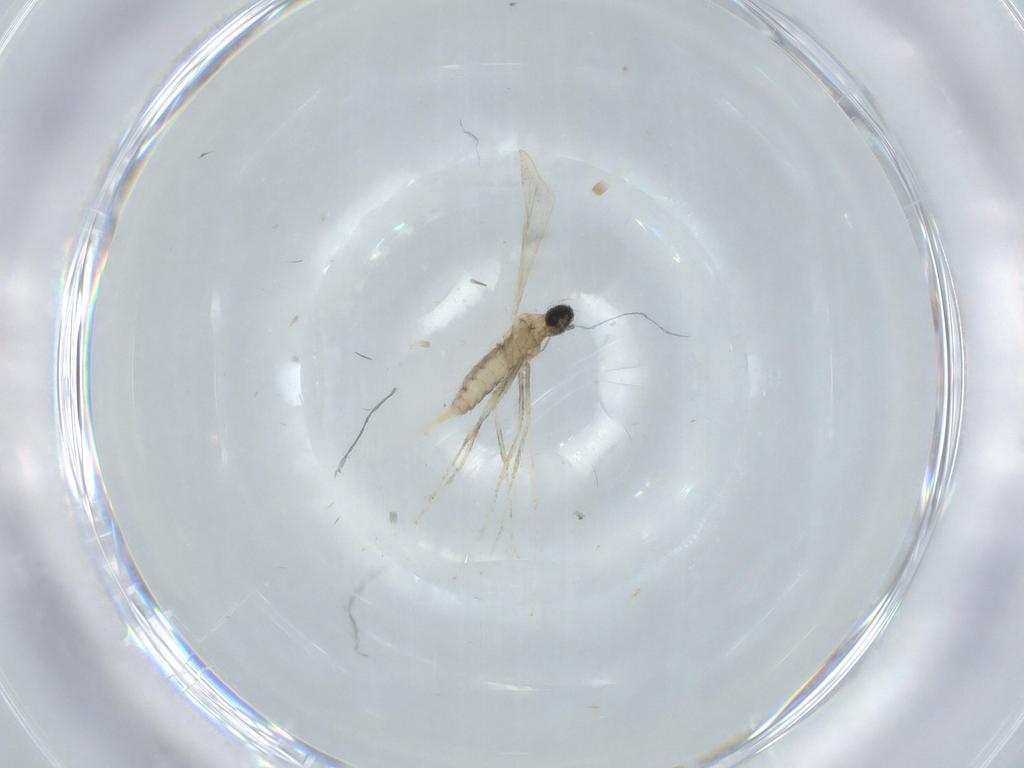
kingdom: Animalia
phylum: Arthropoda
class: Insecta
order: Diptera
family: Cecidomyiidae
